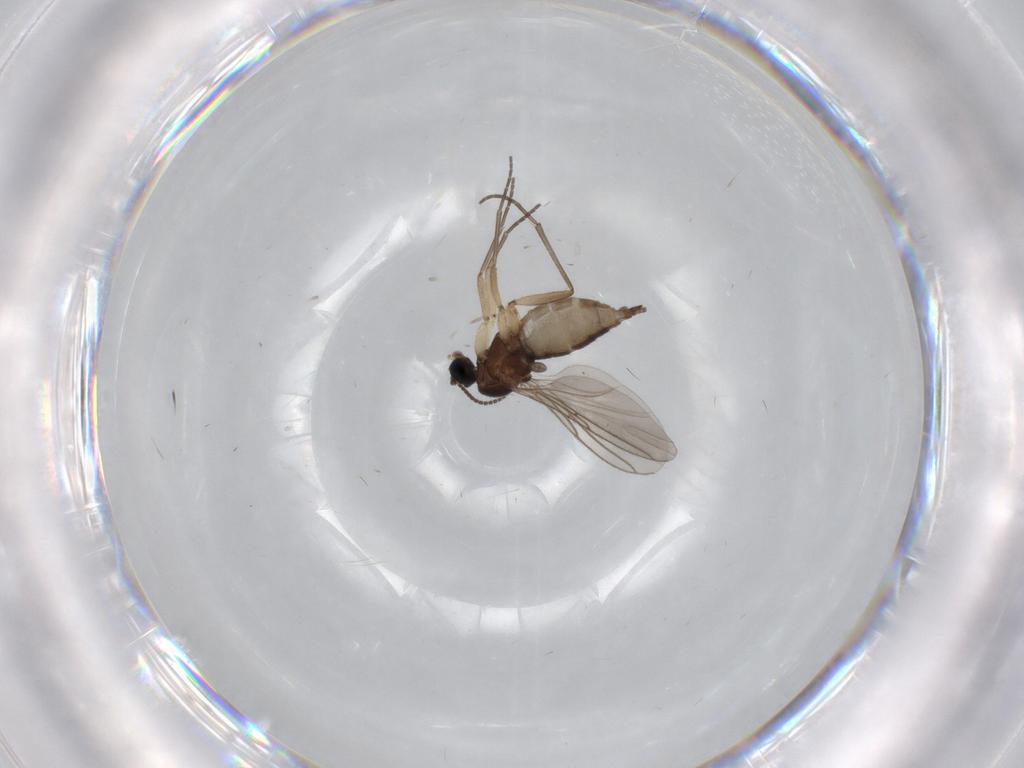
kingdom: Animalia
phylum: Arthropoda
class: Insecta
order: Diptera
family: Sciaridae
